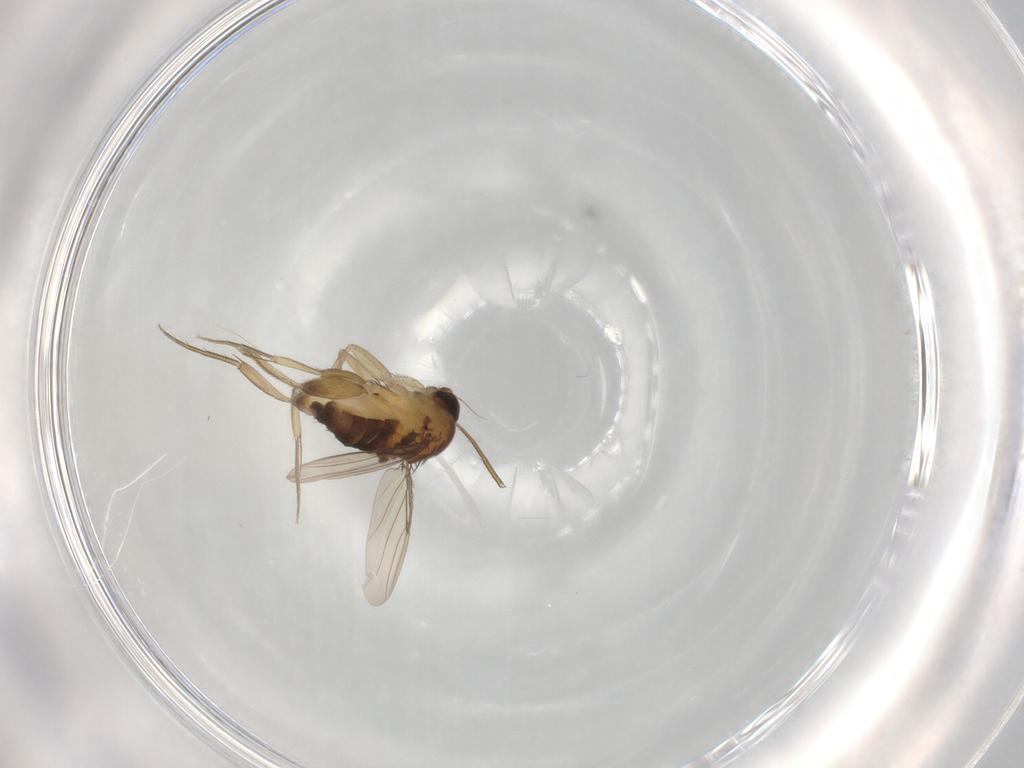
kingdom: Animalia
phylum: Arthropoda
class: Insecta
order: Diptera
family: Phoridae
